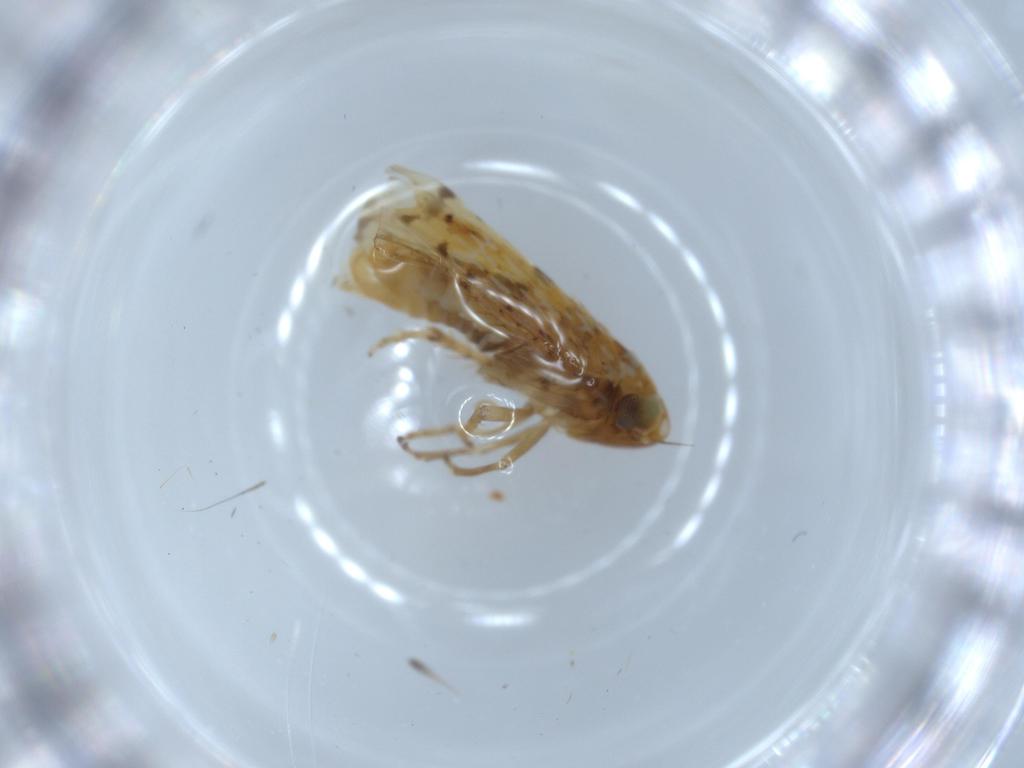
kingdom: Animalia
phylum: Arthropoda
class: Insecta
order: Hemiptera
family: Cicadellidae
